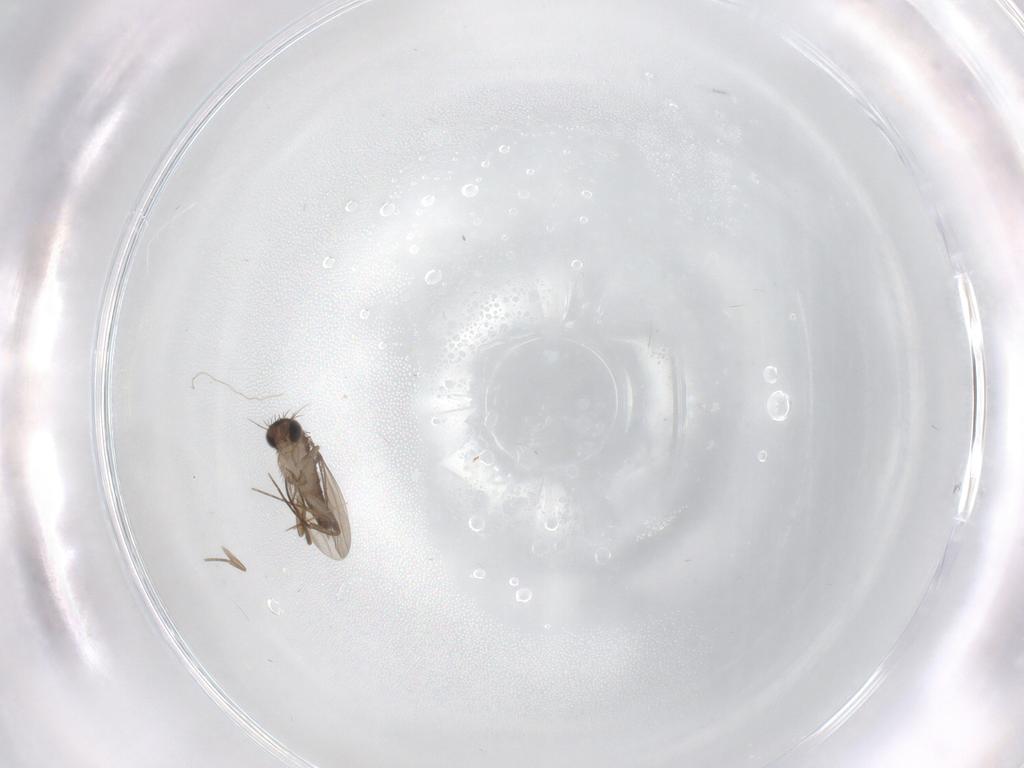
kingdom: Animalia
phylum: Arthropoda
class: Insecta
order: Diptera
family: Phoridae
